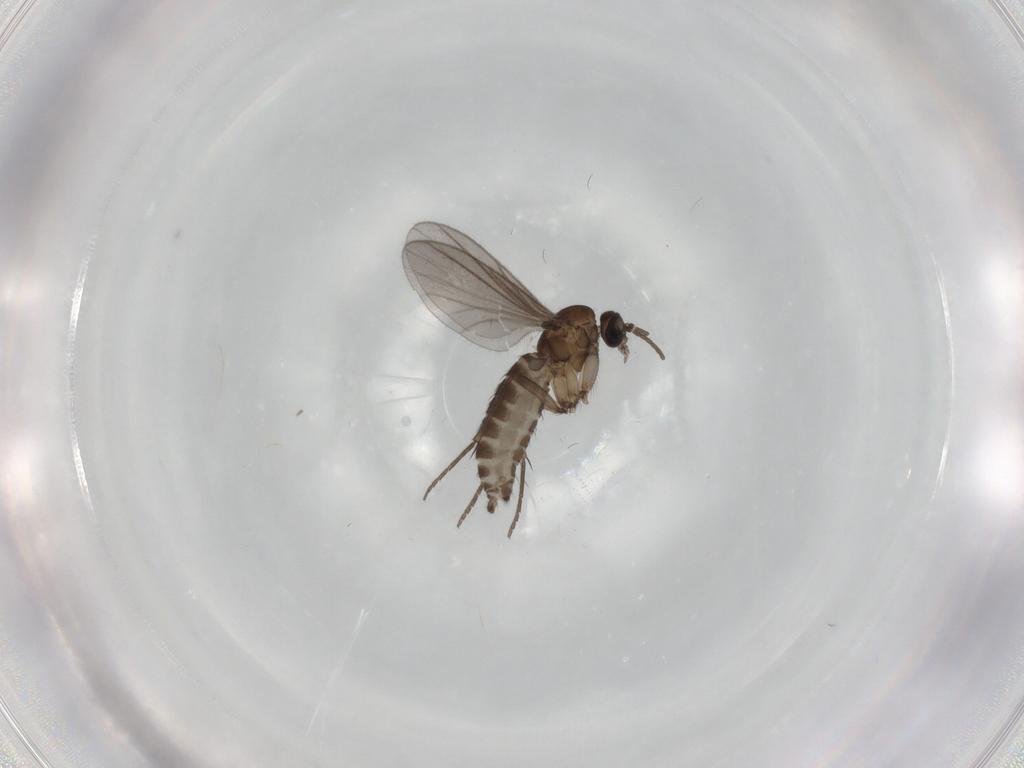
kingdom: Animalia
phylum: Arthropoda
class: Insecta
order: Diptera
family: Sciaridae
